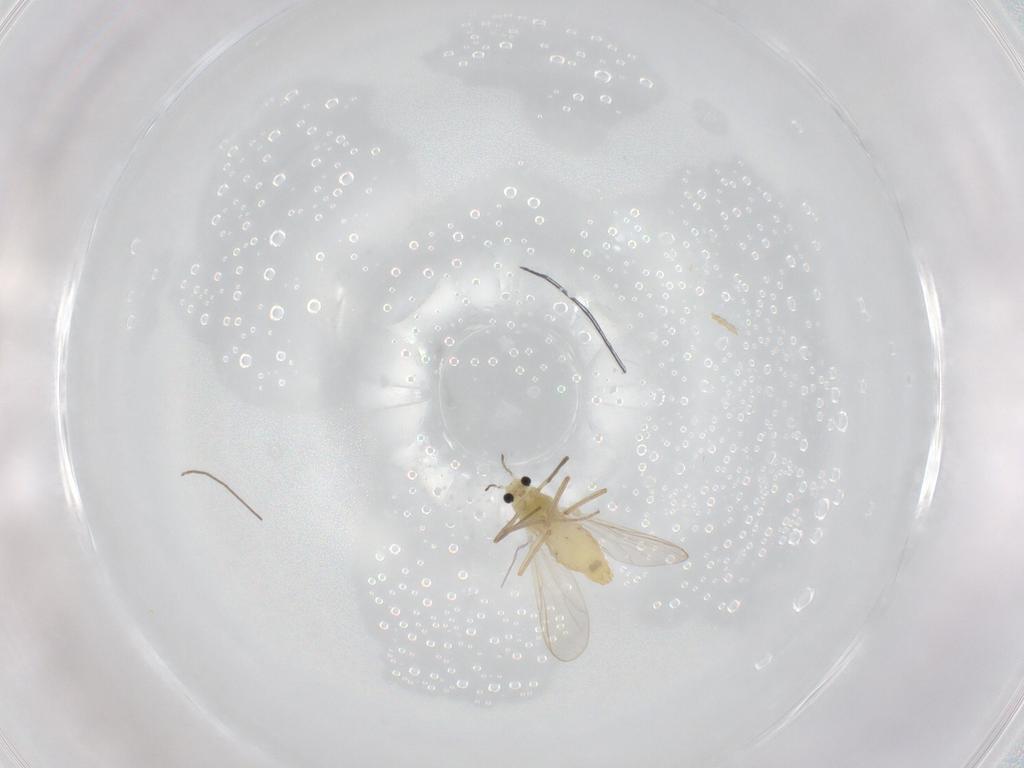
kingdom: Animalia
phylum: Arthropoda
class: Insecta
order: Diptera
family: Chironomidae
